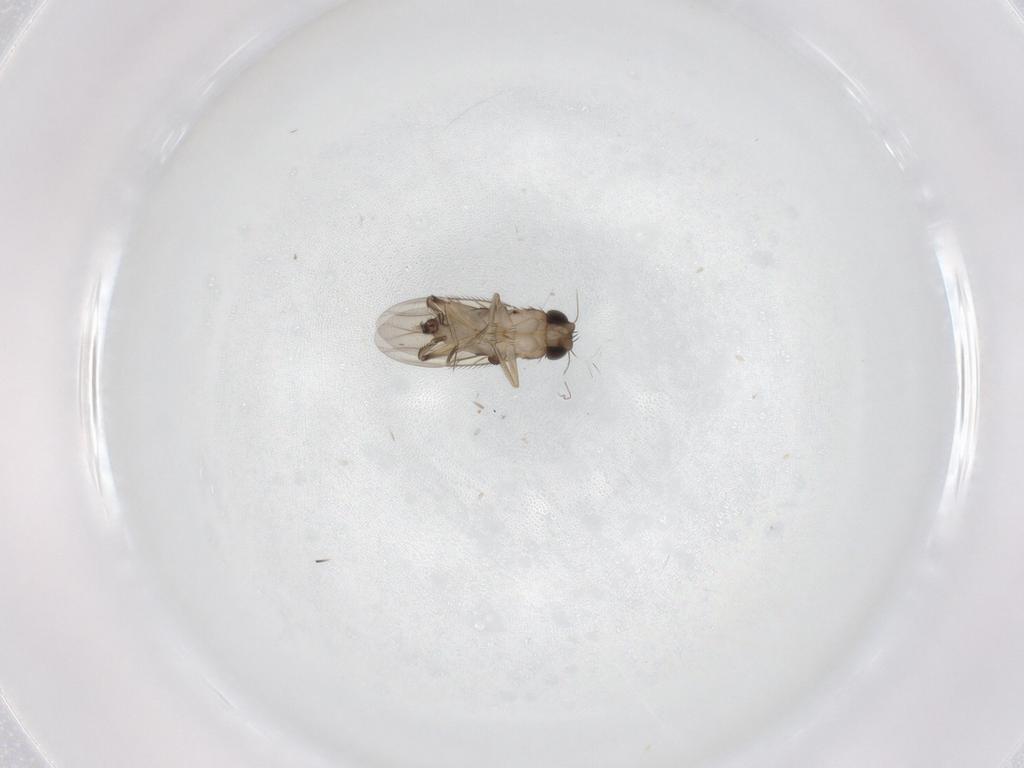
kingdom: Animalia
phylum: Arthropoda
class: Insecta
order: Diptera
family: Phoridae
